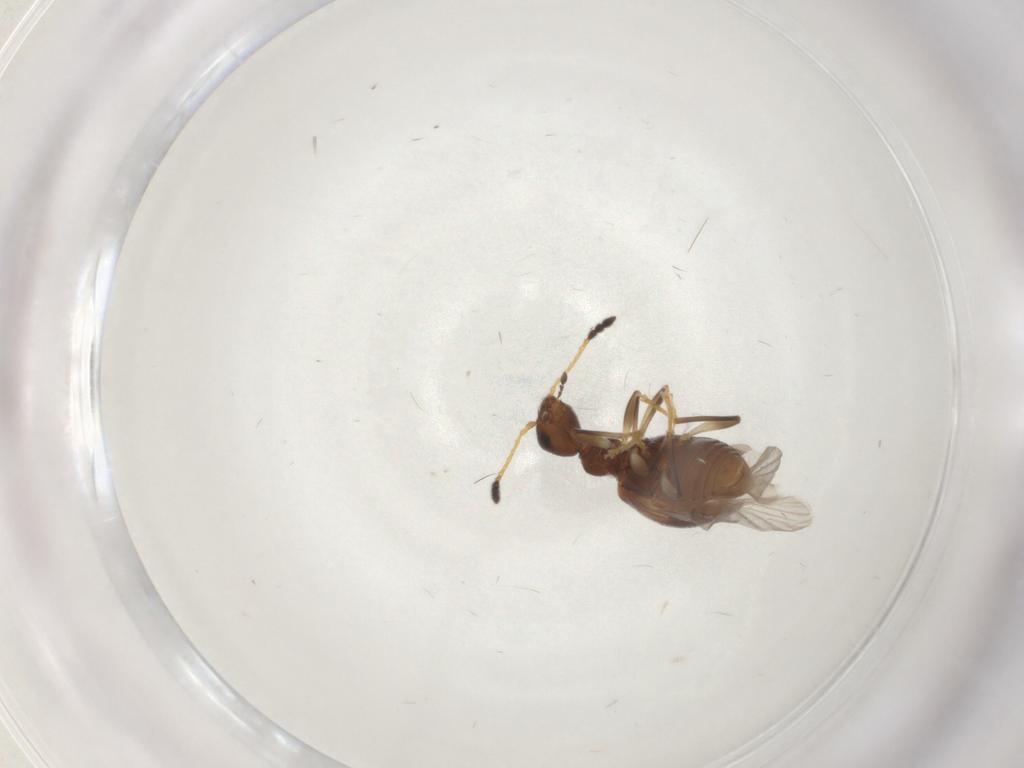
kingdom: Animalia
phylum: Arthropoda
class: Insecta
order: Coleoptera
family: Anthicidae
